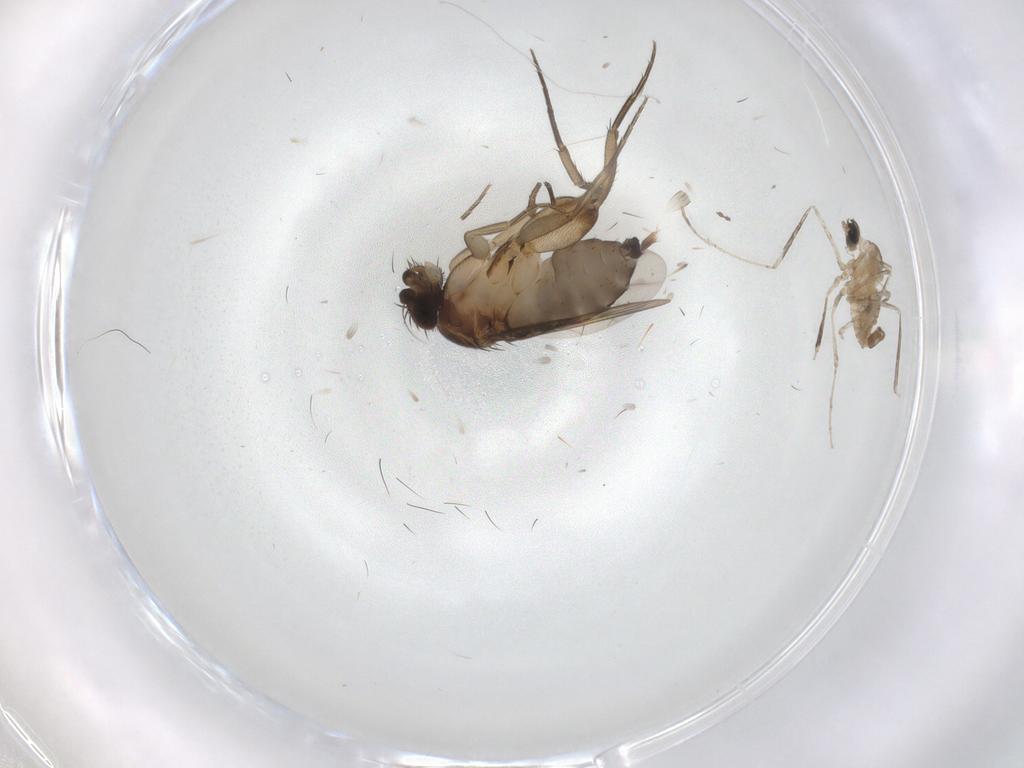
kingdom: Animalia
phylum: Arthropoda
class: Insecta
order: Diptera
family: Phoridae
